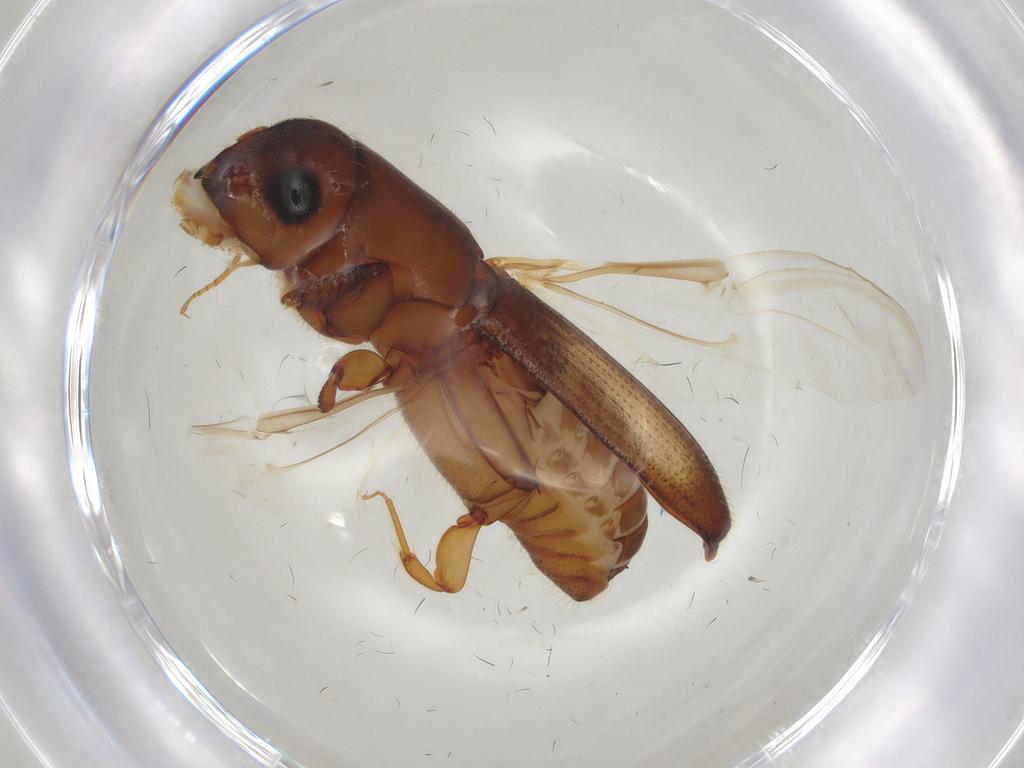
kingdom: Animalia
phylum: Arthropoda
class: Insecta
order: Coleoptera
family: Curculionidae
